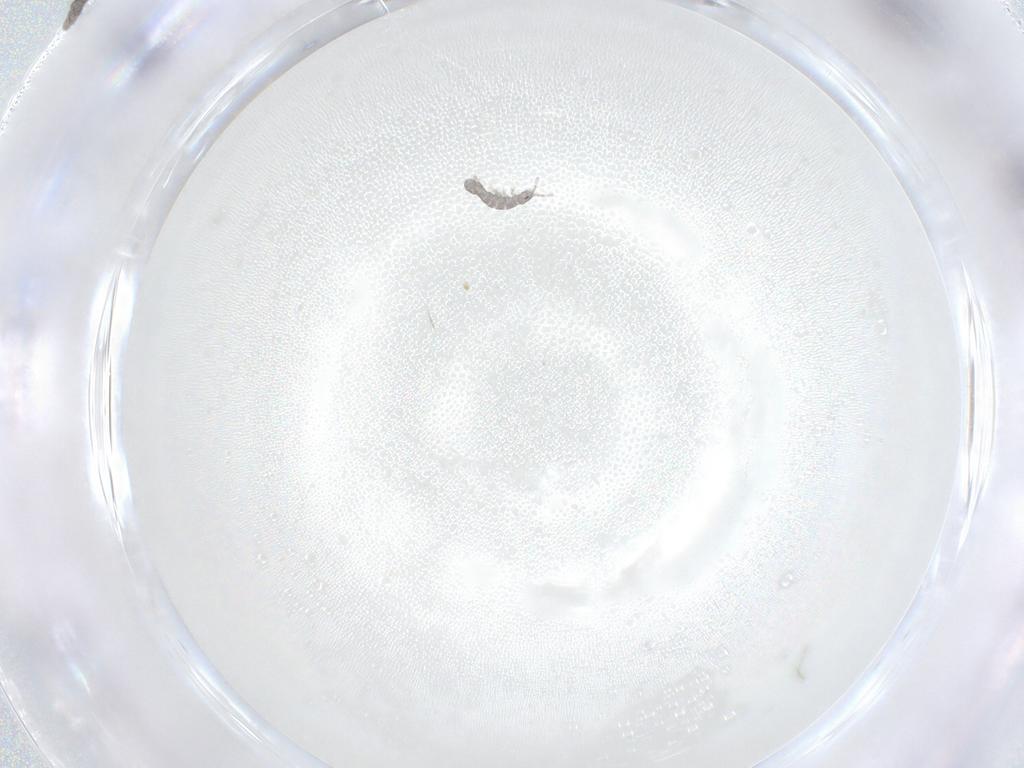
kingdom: Animalia
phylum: Arthropoda
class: Collembola
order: Entomobryomorpha
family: Isotomidae
